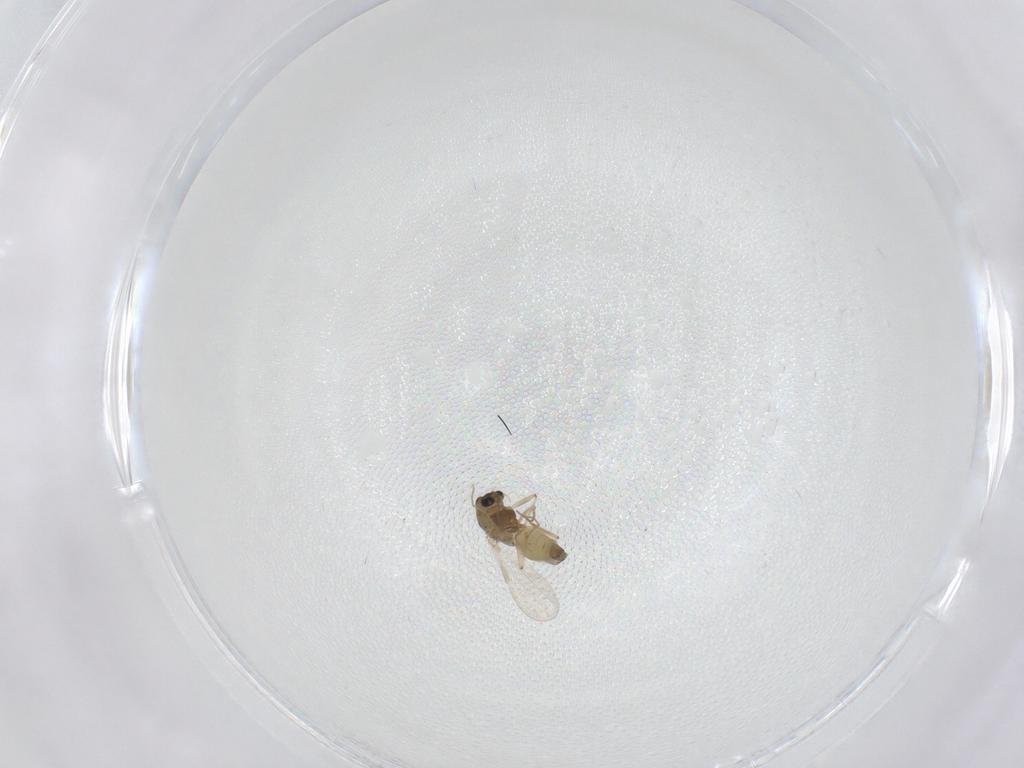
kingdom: Animalia
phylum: Arthropoda
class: Insecta
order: Diptera
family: Chironomidae
